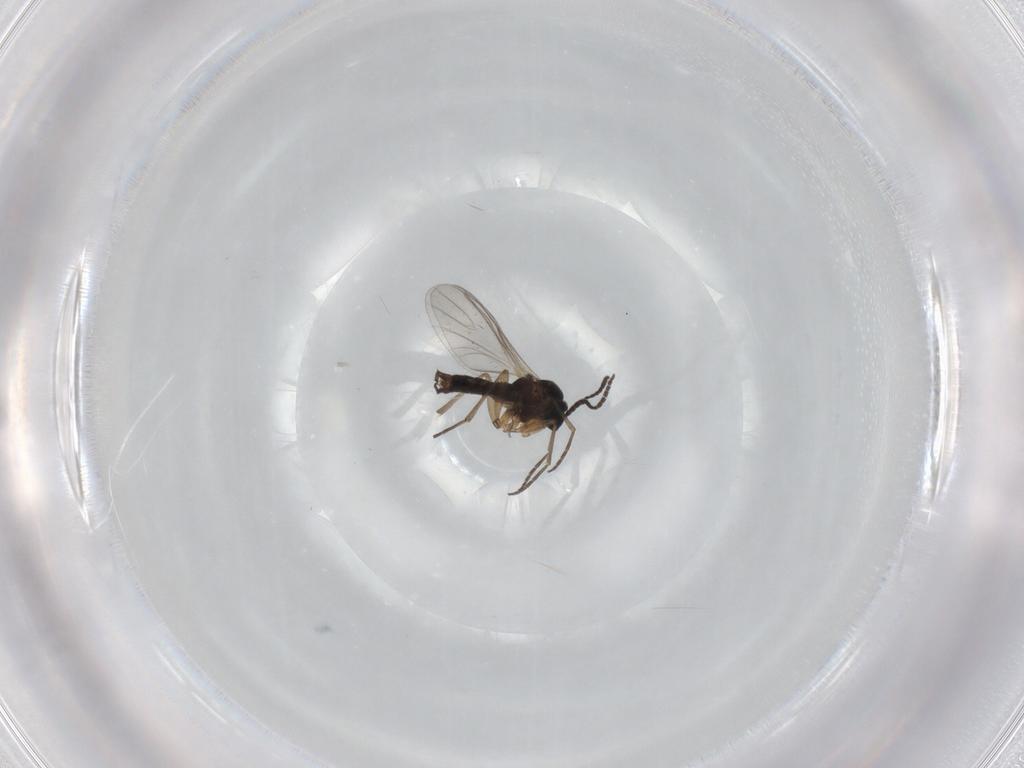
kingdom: Animalia
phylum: Arthropoda
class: Insecta
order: Diptera
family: Sciaridae
